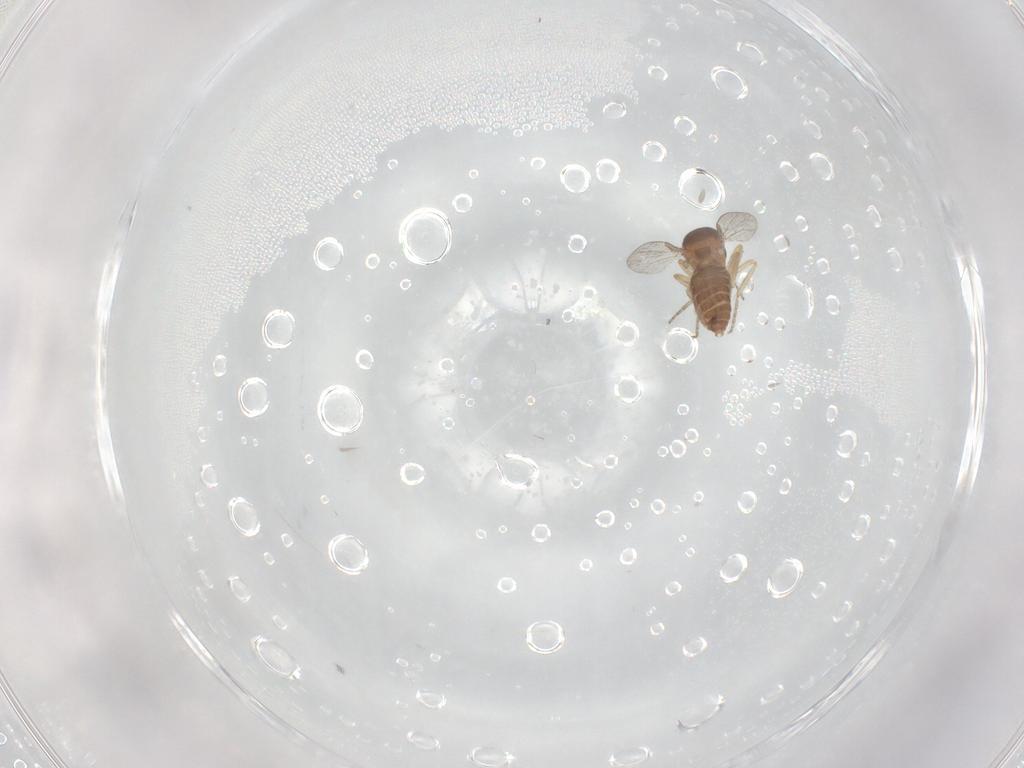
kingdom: Animalia
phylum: Arthropoda
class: Insecta
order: Diptera
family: Ceratopogonidae
